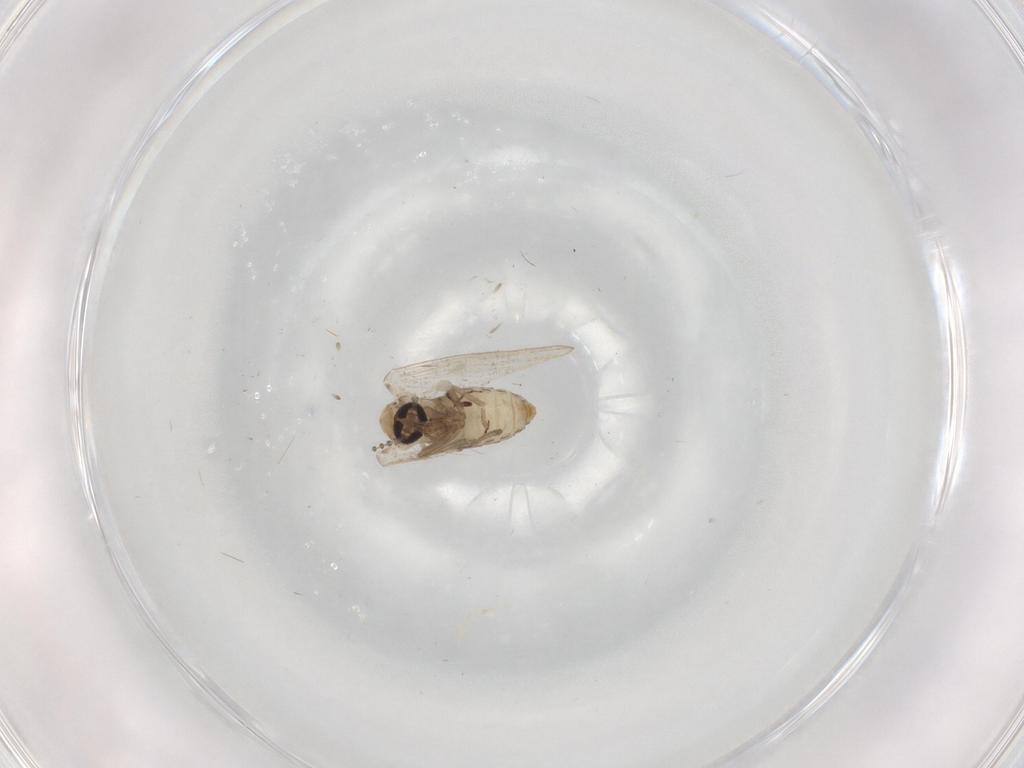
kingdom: Animalia
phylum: Arthropoda
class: Insecta
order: Diptera
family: Psychodidae
